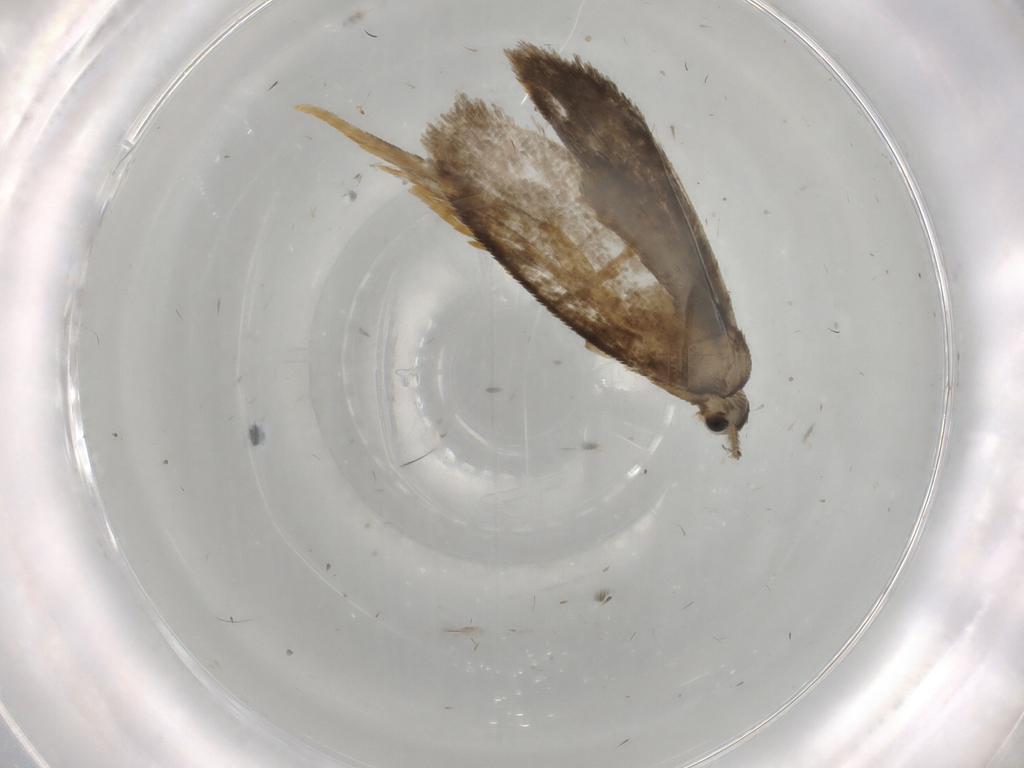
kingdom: Animalia
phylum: Arthropoda
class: Insecta
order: Lepidoptera
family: Psychidae
